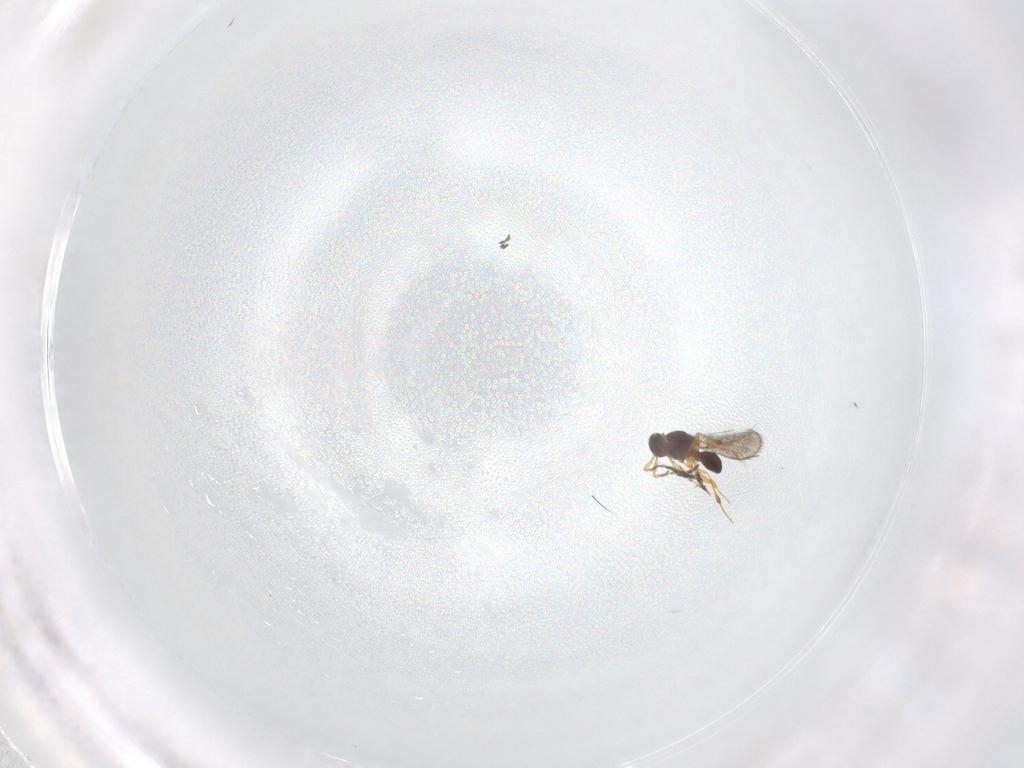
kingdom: Animalia
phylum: Arthropoda
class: Insecta
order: Hymenoptera
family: Platygastridae
